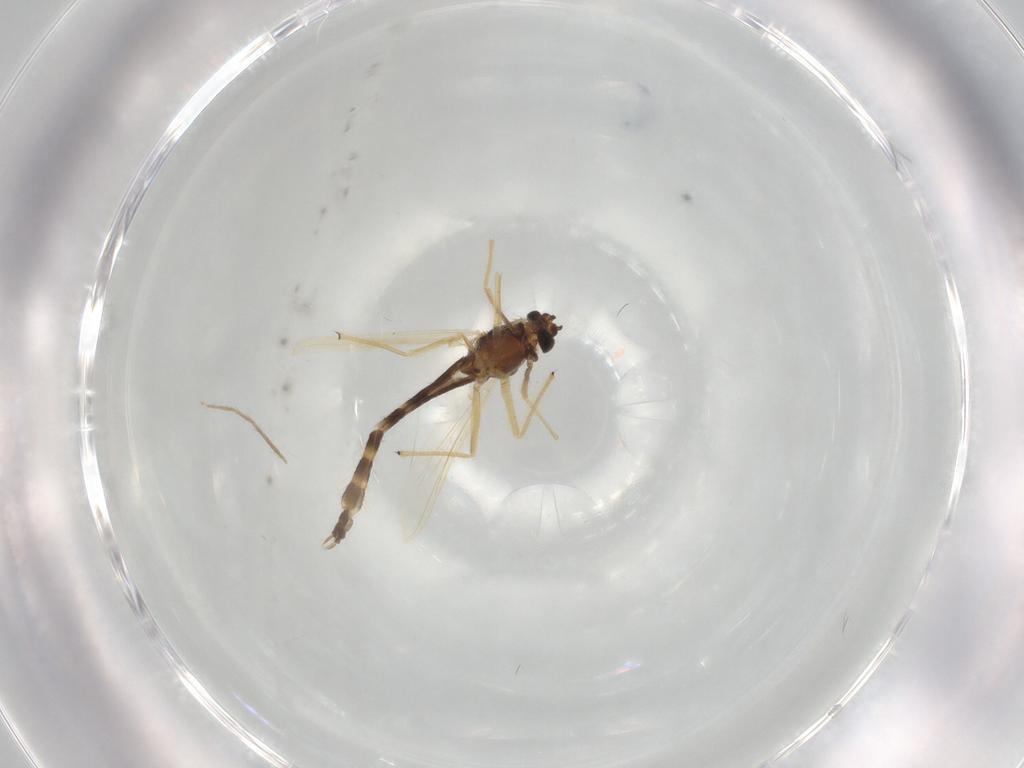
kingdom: Animalia
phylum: Arthropoda
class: Insecta
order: Diptera
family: Chironomidae
